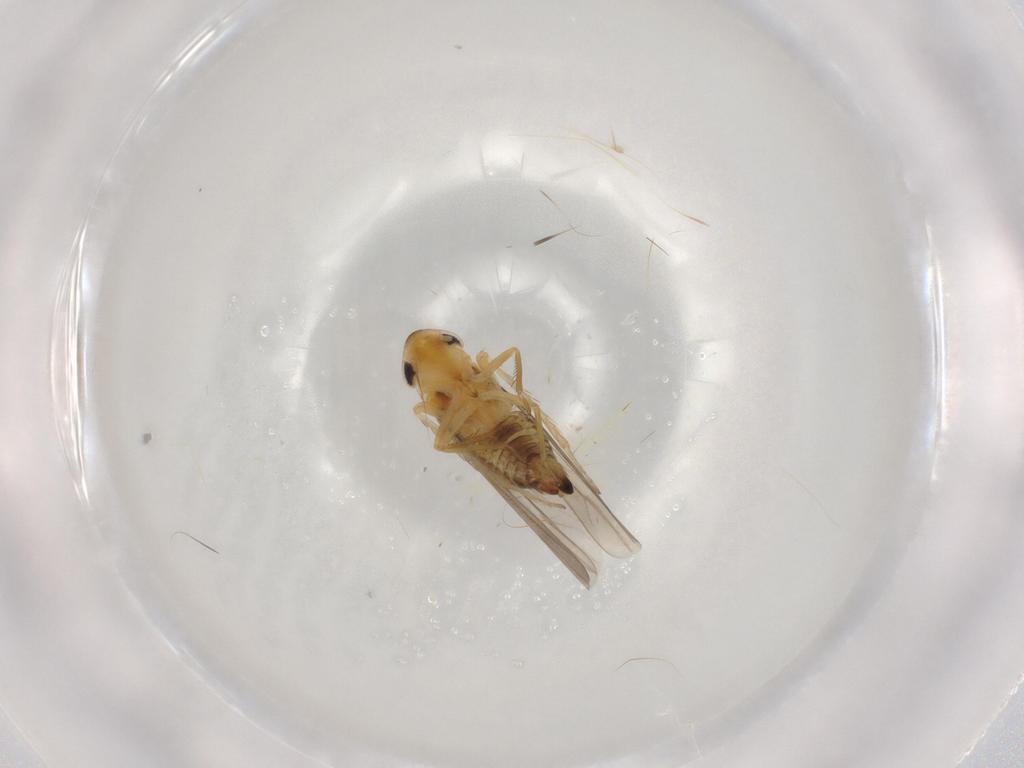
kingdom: Animalia
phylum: Arthropoda
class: Insecta
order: Hemiptera
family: Cicadellidae
